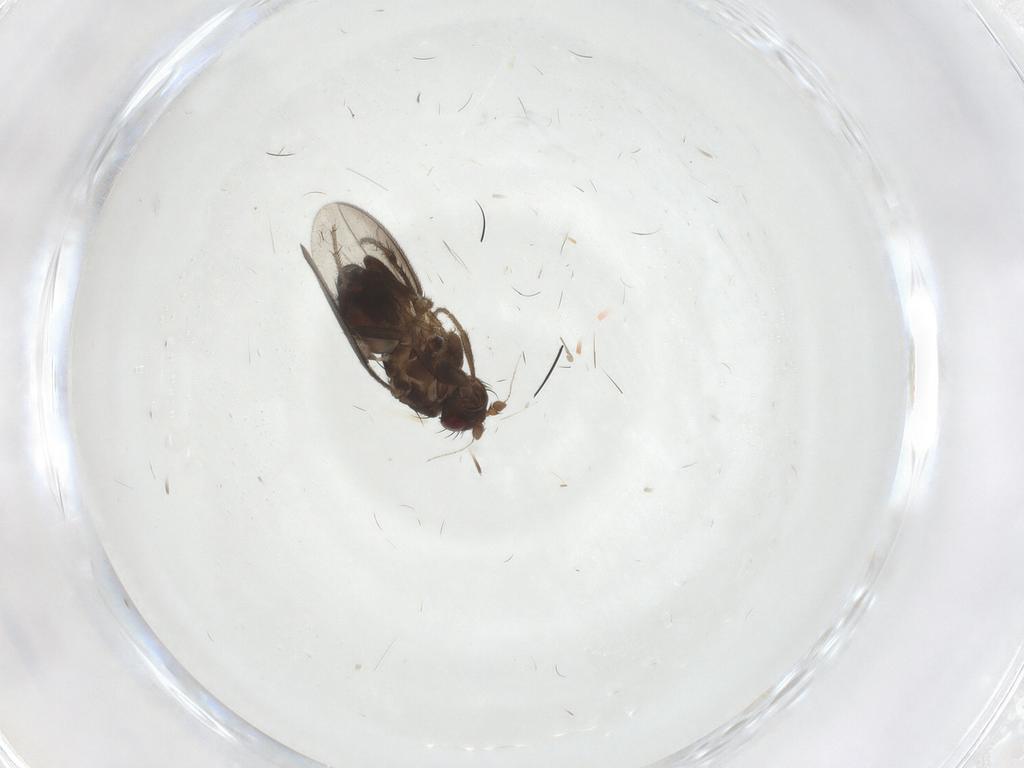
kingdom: Animalia
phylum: Arthropoda
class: Insecta
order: Diptera
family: Sphaeroceridae
